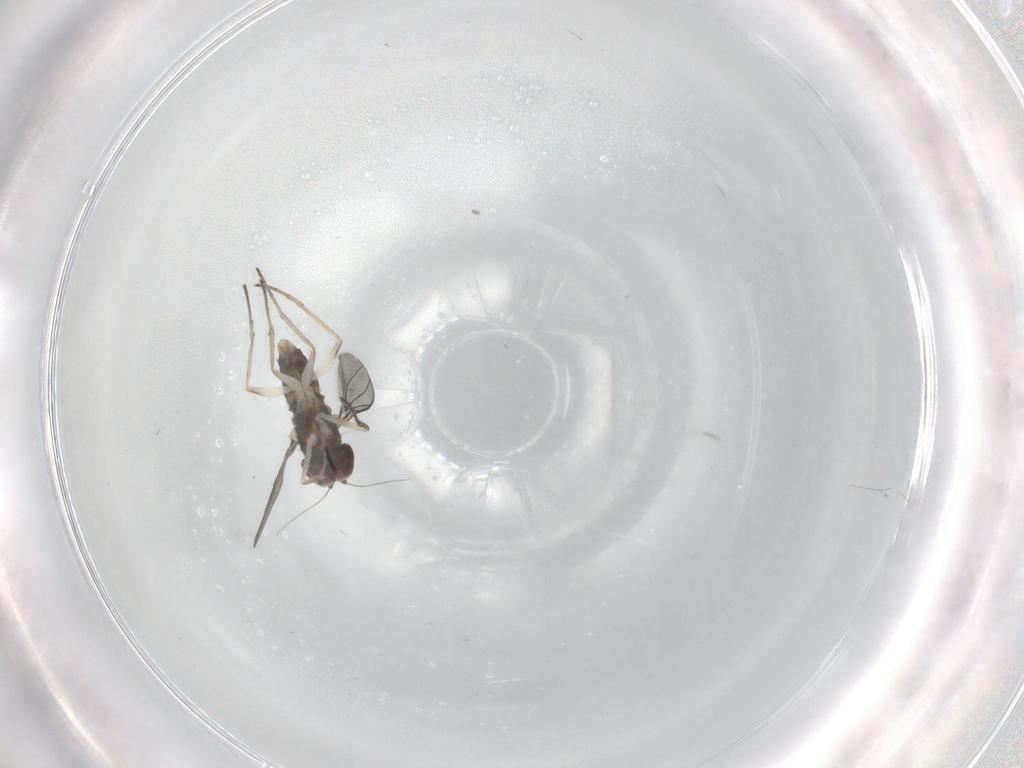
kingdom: Animalia
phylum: Arthropoda
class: Insecta
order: Diptera
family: Dolichopodidae
